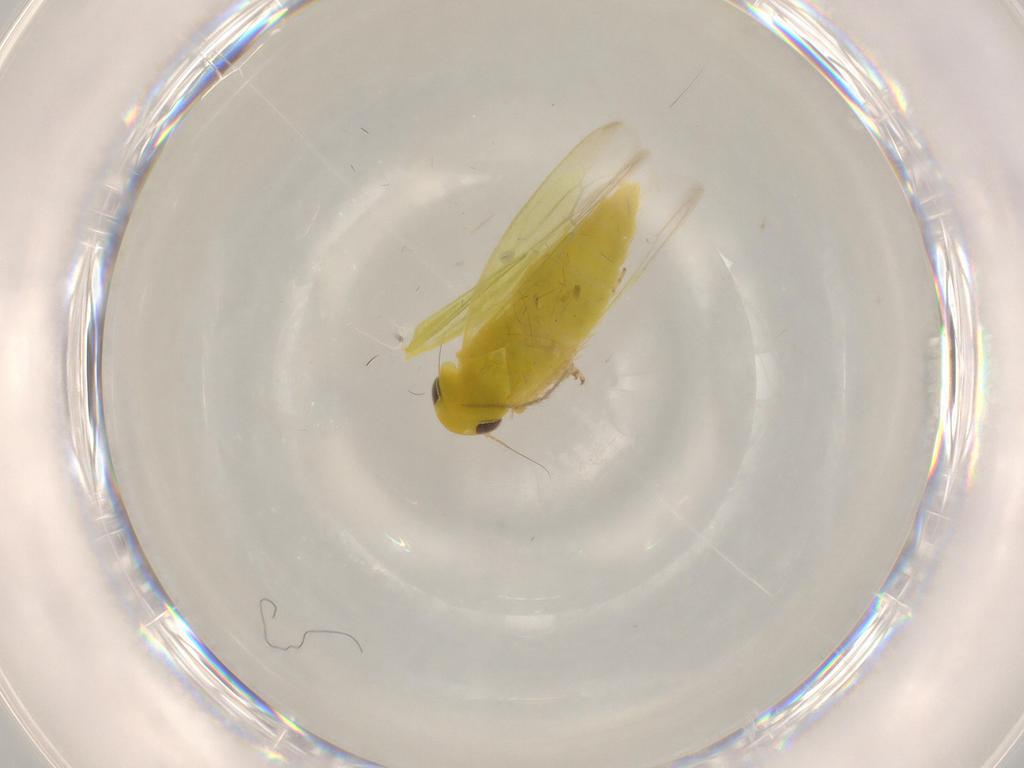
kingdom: Animalia
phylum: Arthropoda
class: Insecta
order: Hemiptera
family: Cicadellidae
